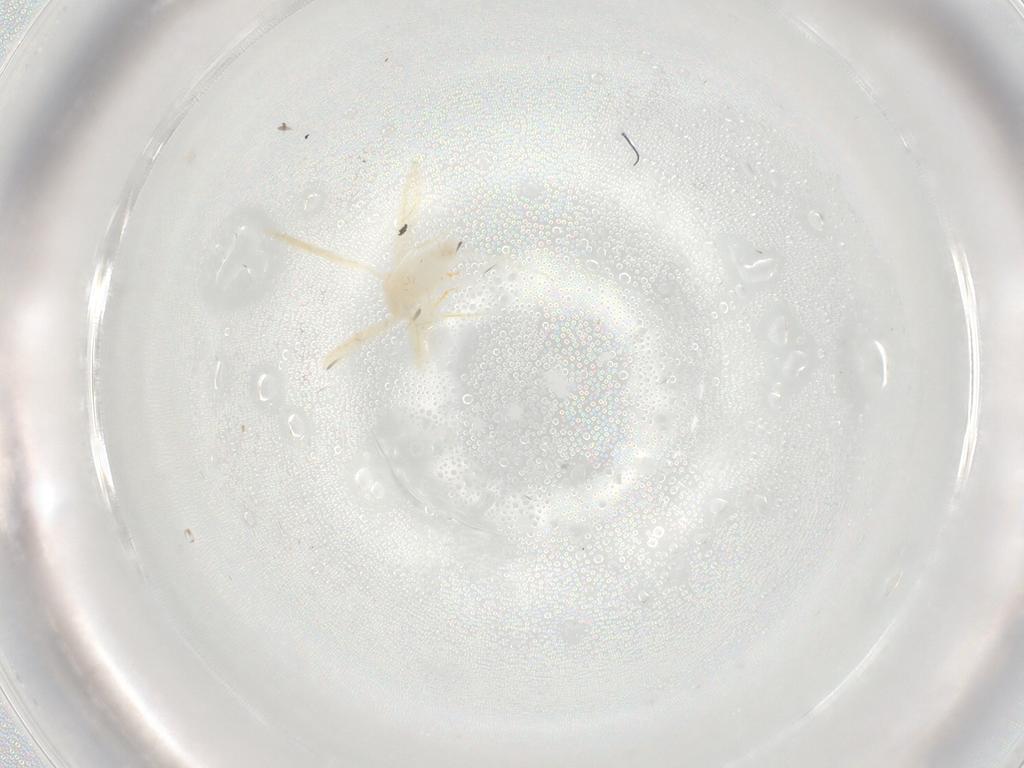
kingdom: Animalia
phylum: Arthropoda
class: Insecta
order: Hemiptera
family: Aleyrodidae
